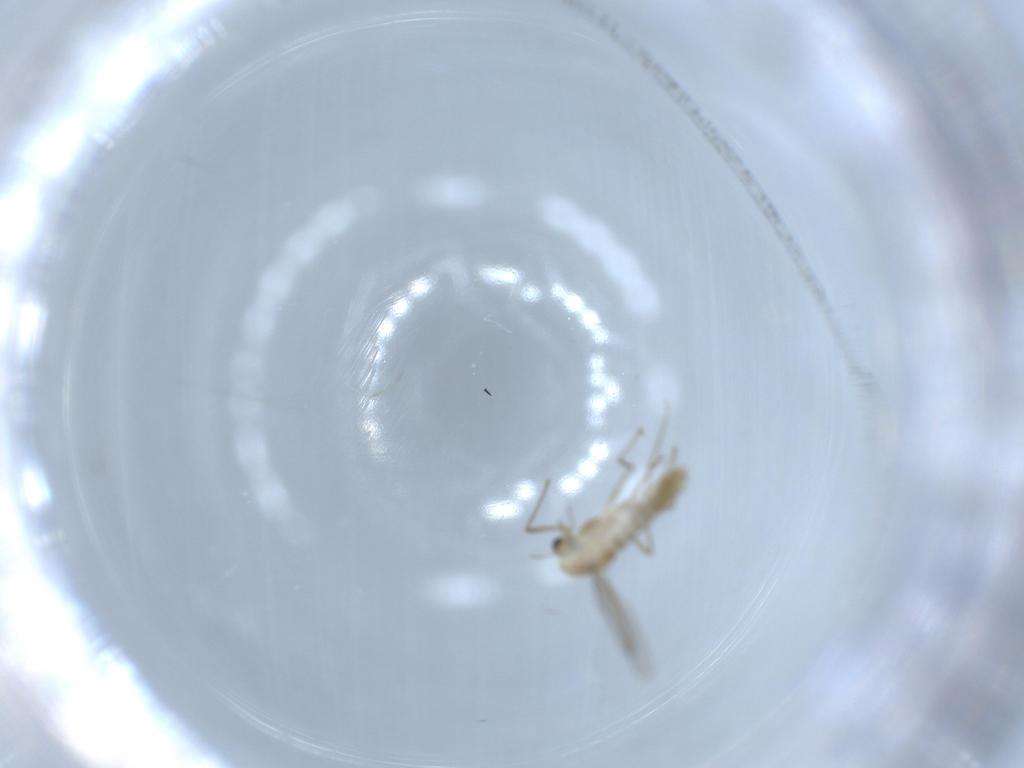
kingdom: Animalia
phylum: Arthropoda
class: Insecta
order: Diptera
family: Chironomidae
